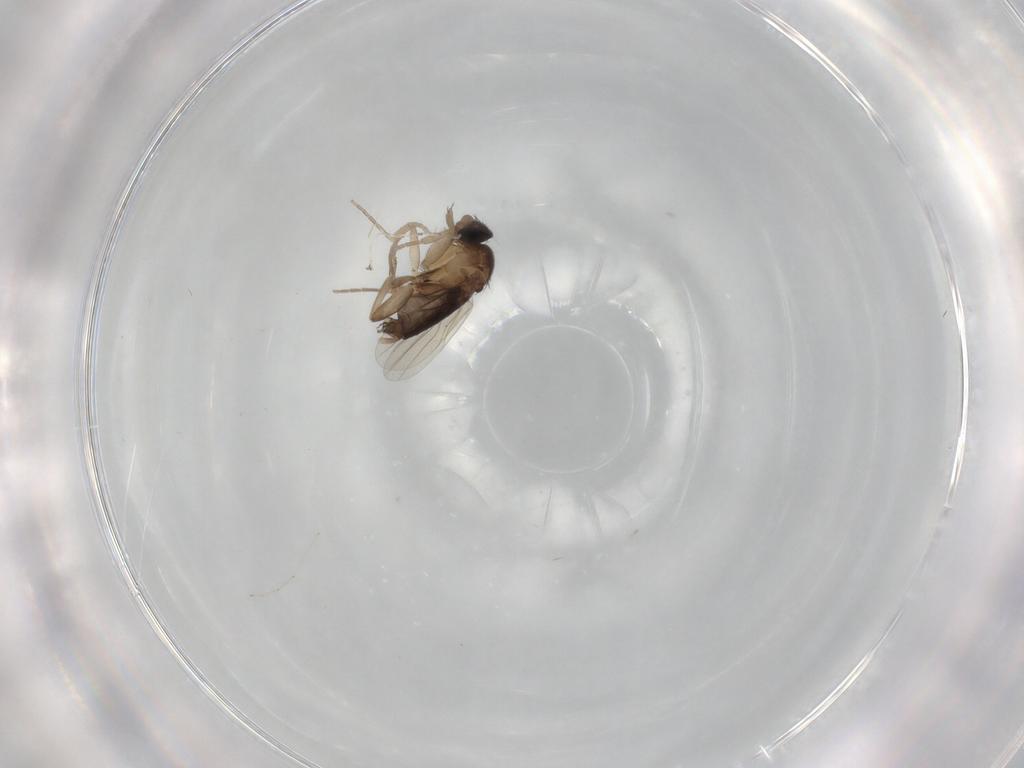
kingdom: Animalia
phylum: Arthropoda
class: Insecta
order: Diptera
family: Phoridae
